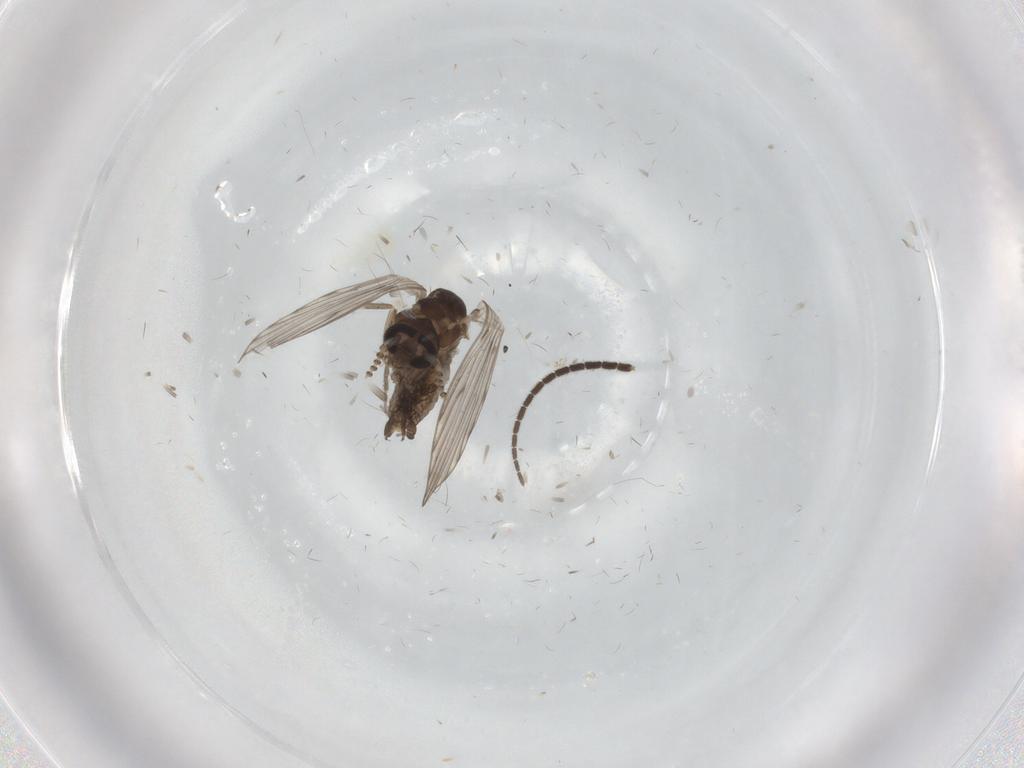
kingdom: Animalia
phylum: Arthropoda
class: Insecta
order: Diptera
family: Psychodidae
